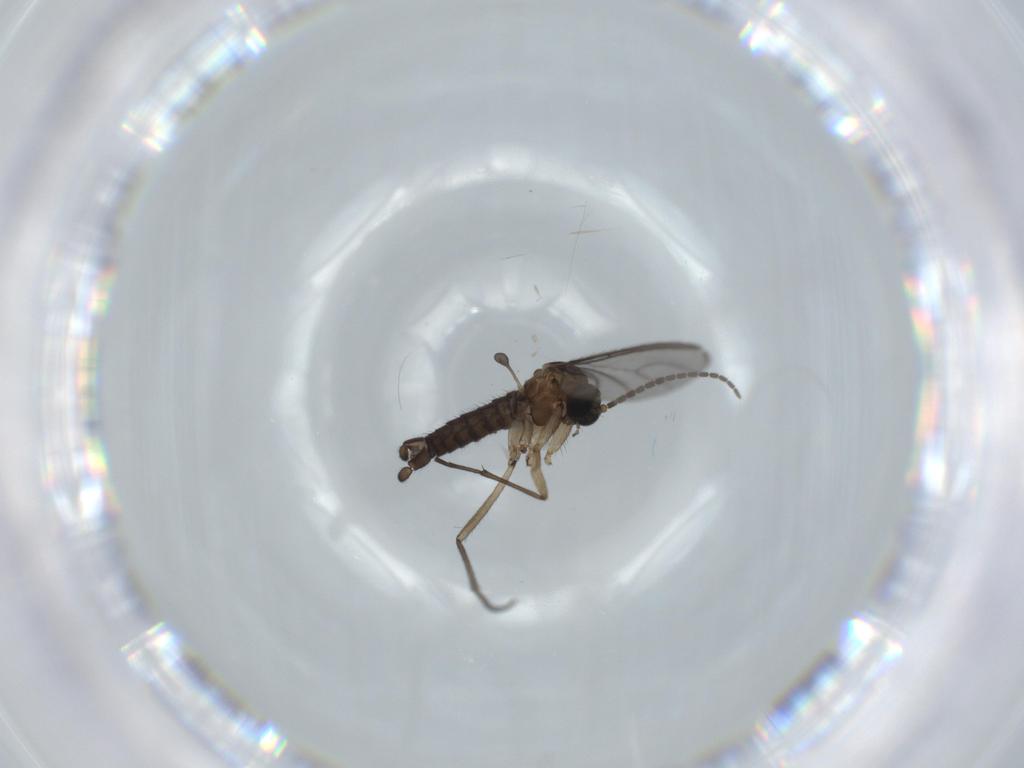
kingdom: Animalia
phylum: Arthropoda
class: Insecta
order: Diptera
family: Sciaridae
